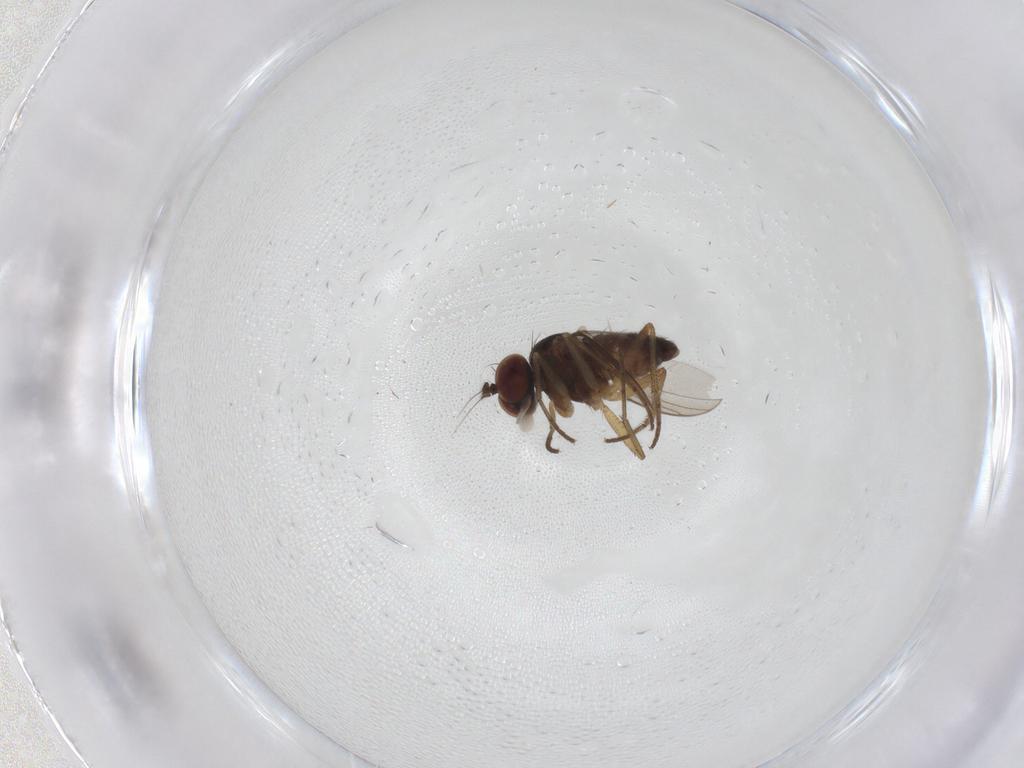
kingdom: Animalia
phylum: Arthropoda
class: Insecta
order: Diptera
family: Dolichopodidae
